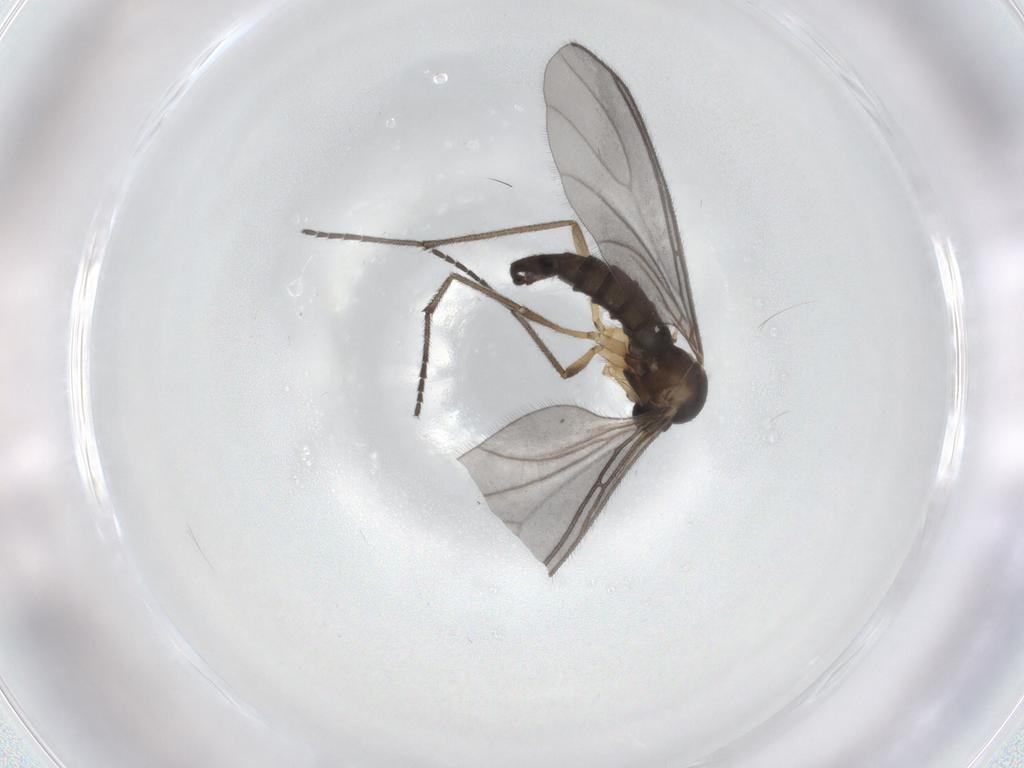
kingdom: Animalia
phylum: Arthropoda
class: Insecta
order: Diptera
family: Sciaridae
